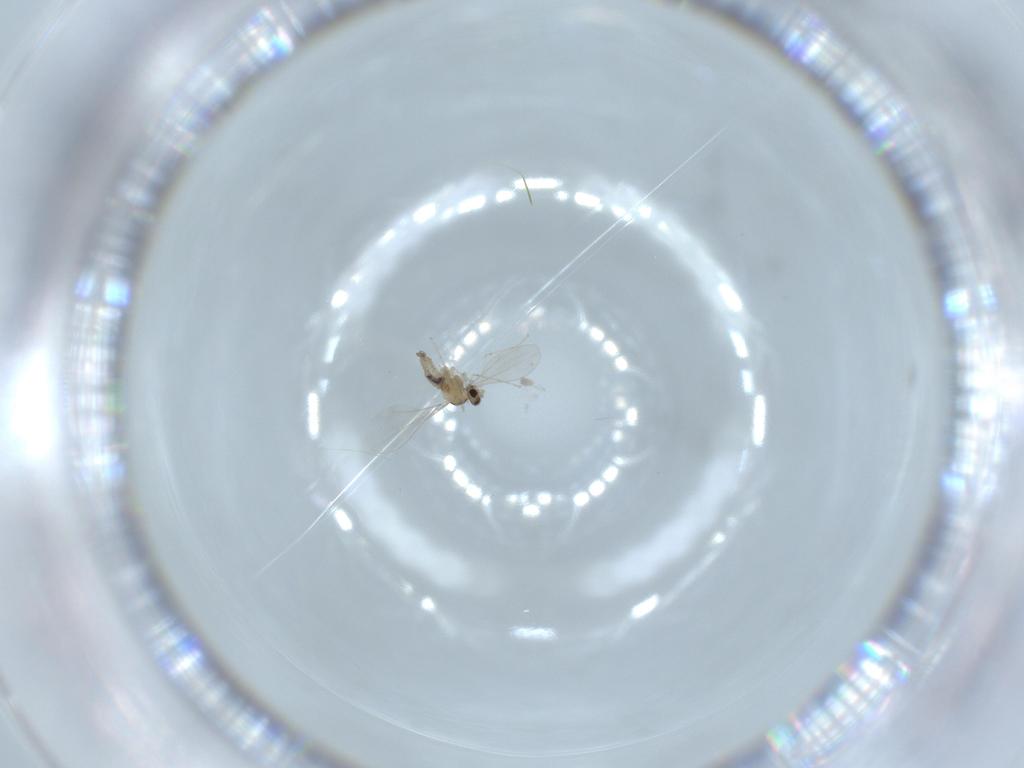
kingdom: Animalia
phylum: Arthropoda
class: Insecta
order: Diptera
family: Cecidomyiidae
